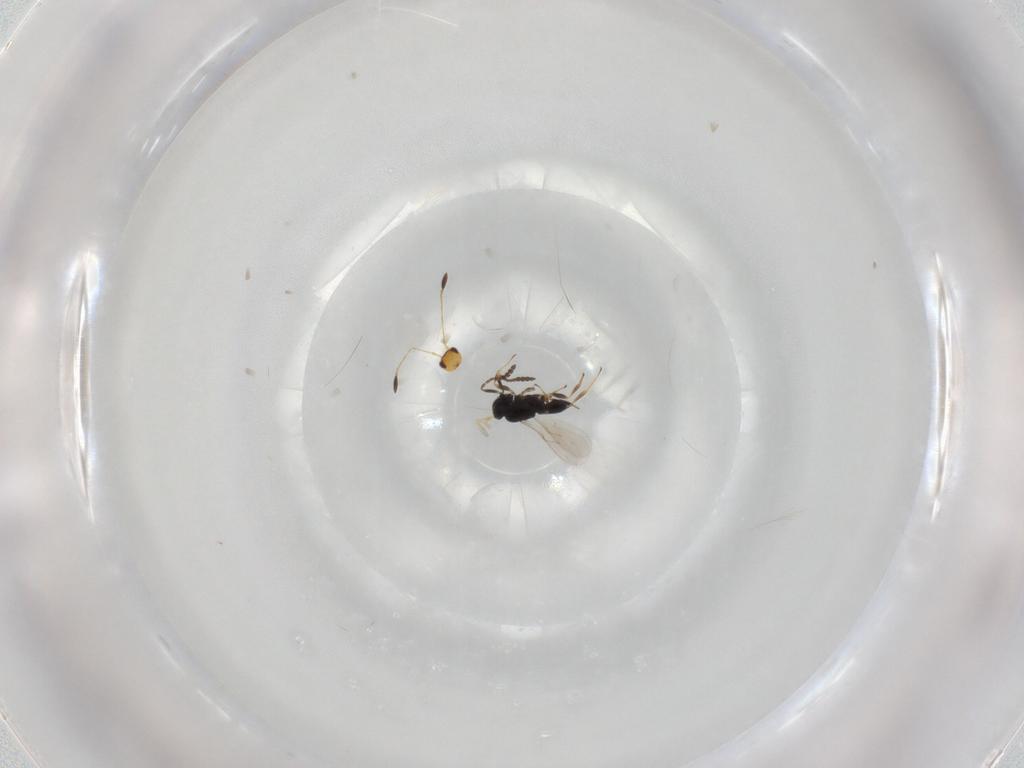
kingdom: Animalia
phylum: Arthropoda
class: Insecta
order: Hymenoptera
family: Scelionidae
